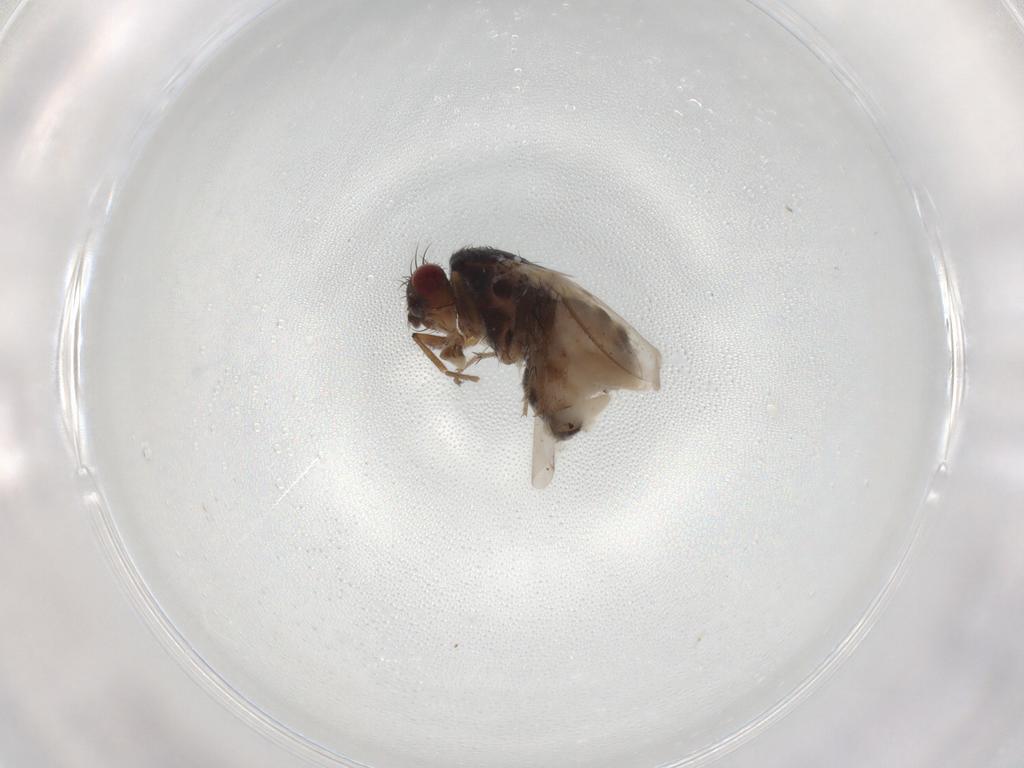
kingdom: Animalia
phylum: Arthropoda
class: Insecta
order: Diptera
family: Sphaeroceridae
